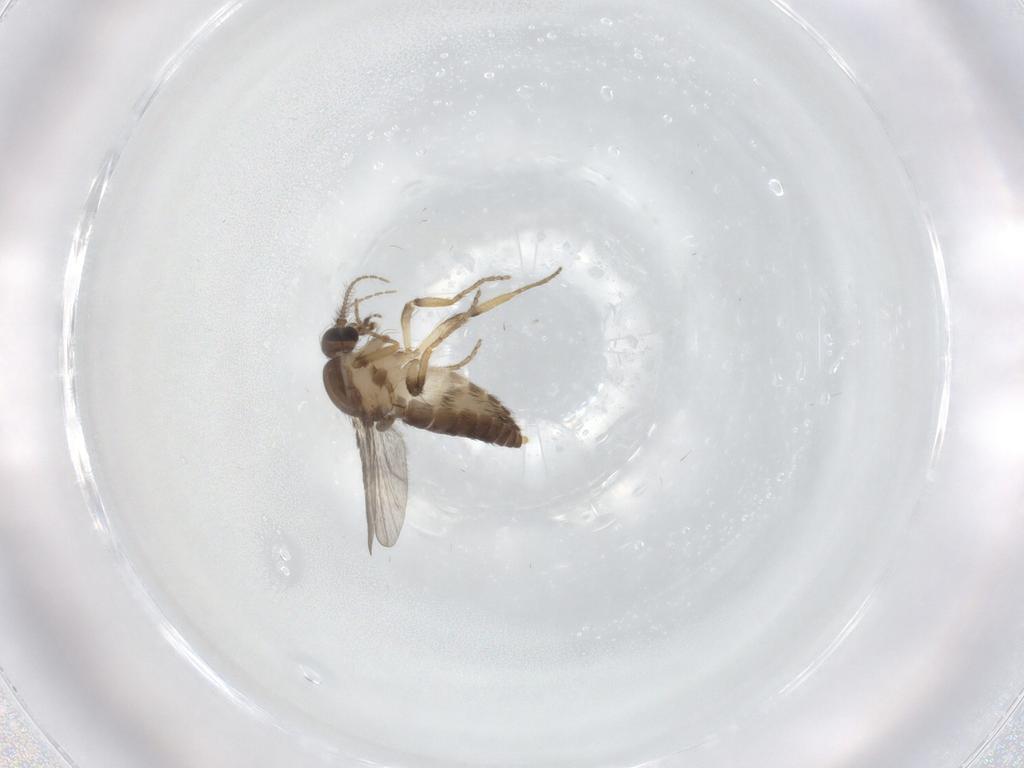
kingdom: Animalia
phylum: Arthropoda
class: Insecta
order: Diptera
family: Ceratopogonidae
